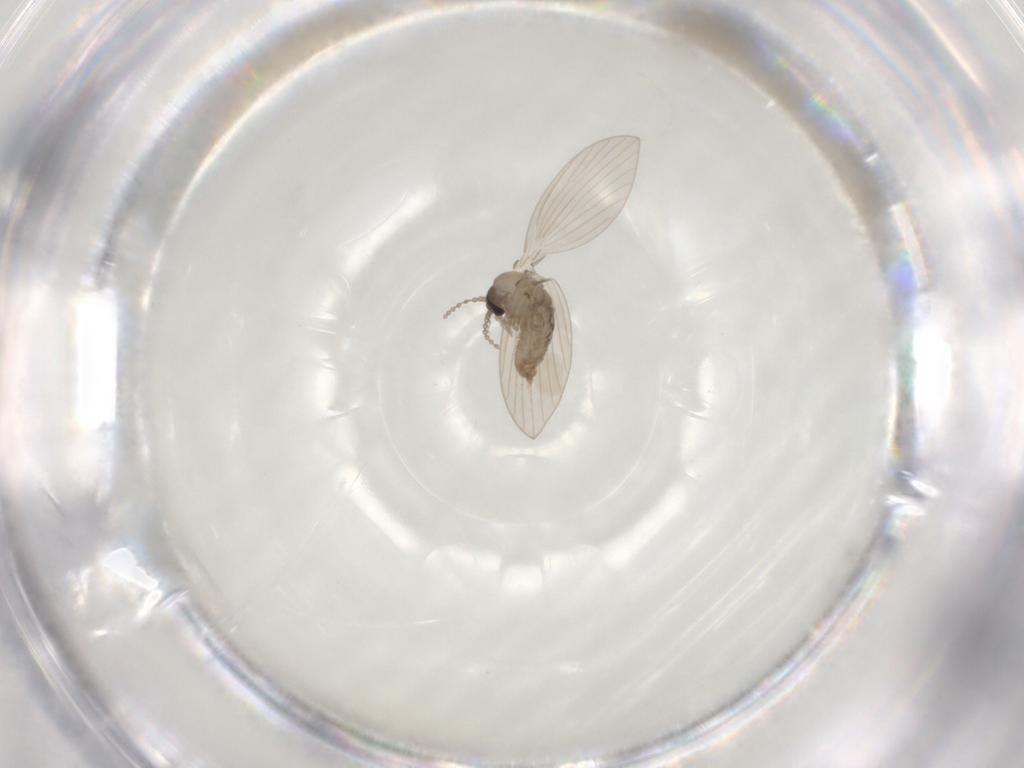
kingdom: Animalia
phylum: Arthropoda
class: Insecta
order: Diptera
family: Psychodidae
